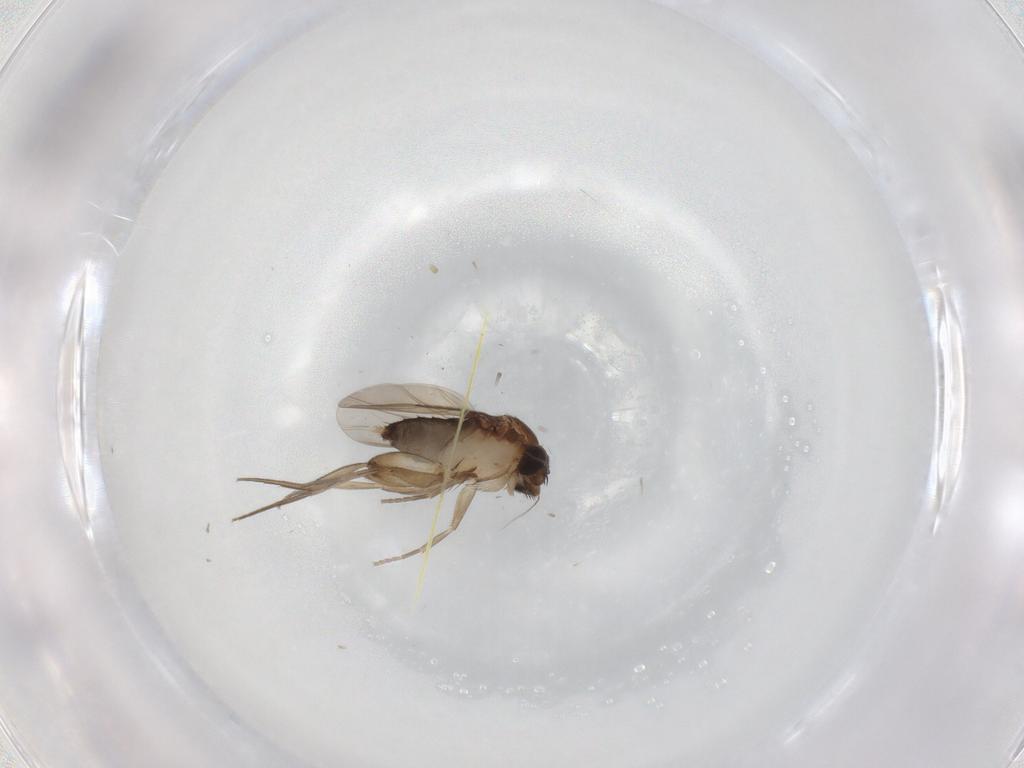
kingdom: Animalia
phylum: Arthropoda
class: Insecta
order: Diptera
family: Phoridae
